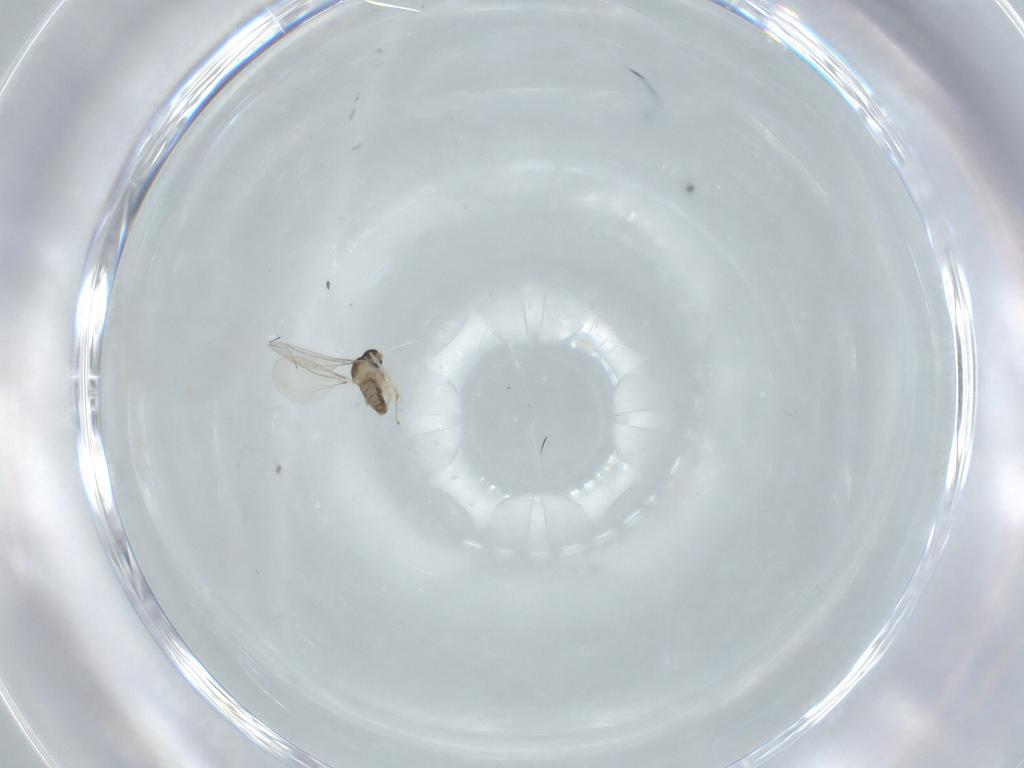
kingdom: Animalia
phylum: Arthropoda
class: Insecta
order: Diptera
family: Cecidomyiidae
